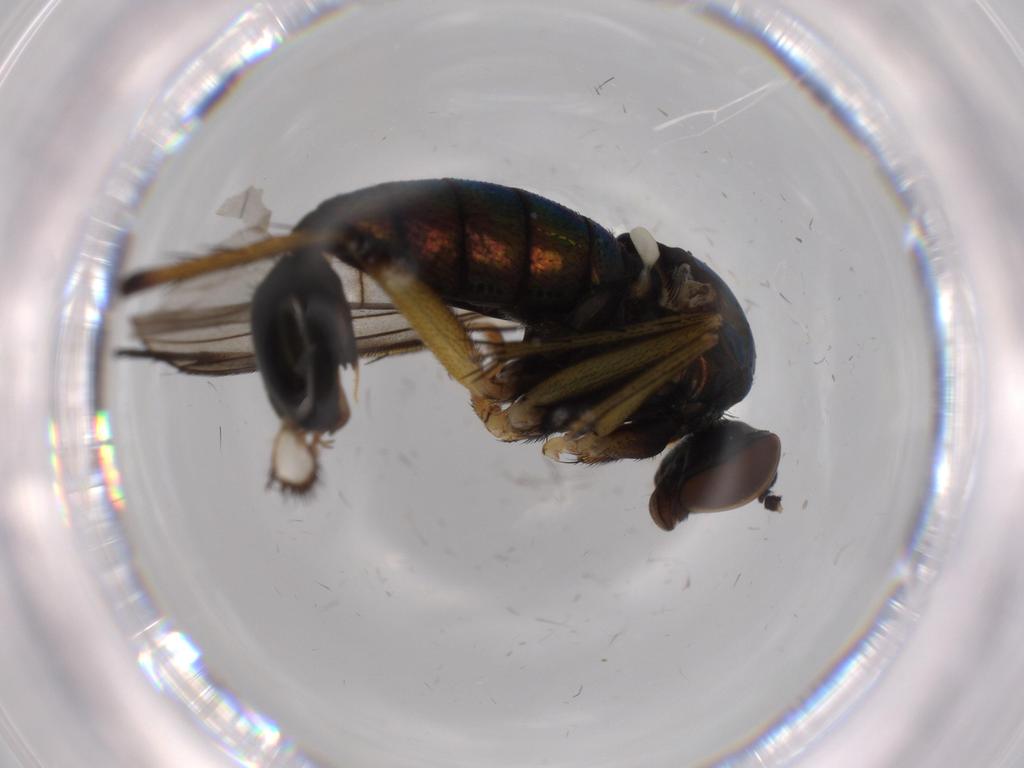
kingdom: Animalia
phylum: Arthropoda
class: Insecta
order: Diptera
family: Dolichopodidae
